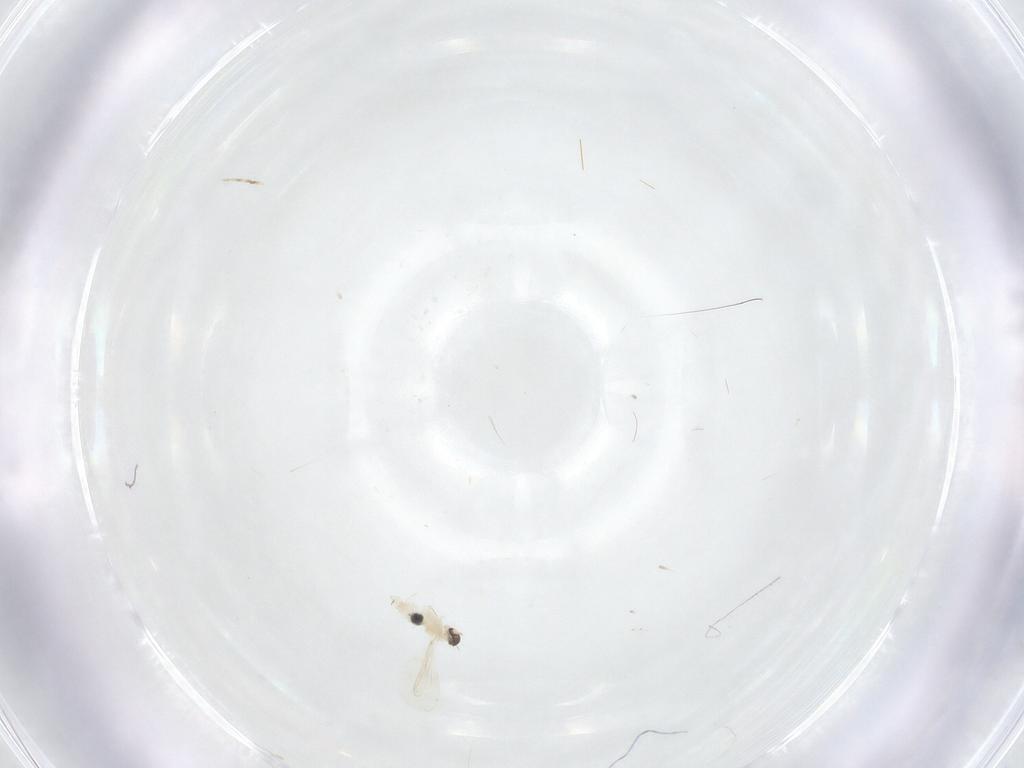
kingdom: Animalia
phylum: Arthropoda
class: Insecta
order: Diptera
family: Cecidomyiidae
